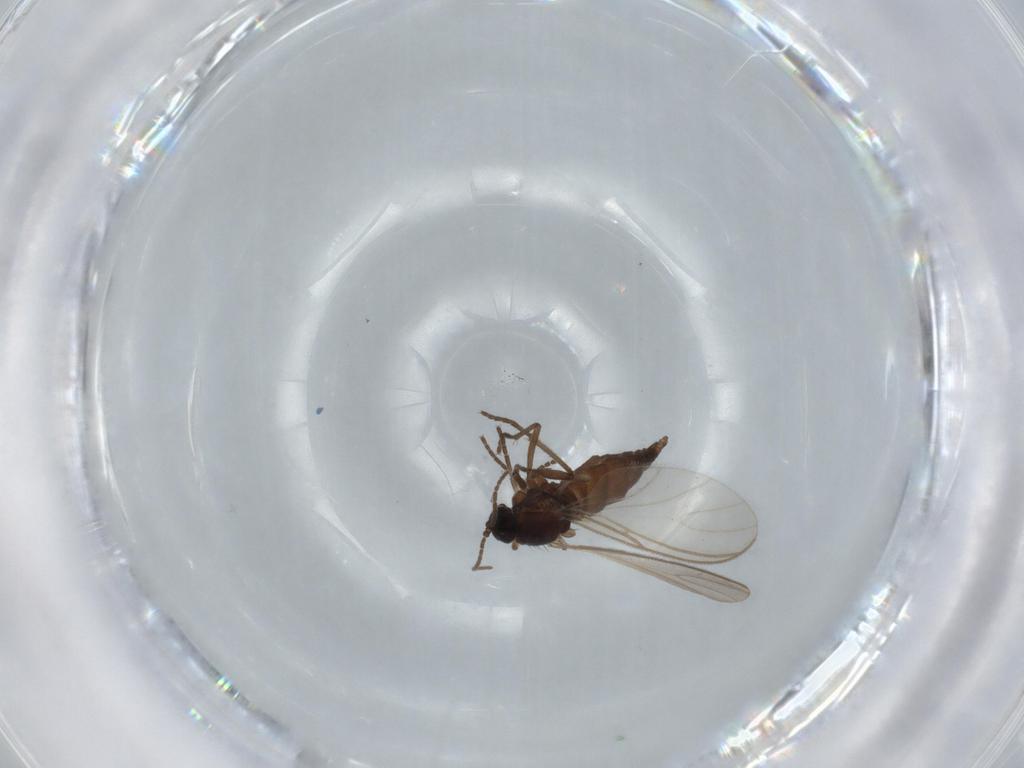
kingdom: Animalia
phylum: Arthropoda
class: Insecta
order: Diptera
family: Sciaridae
